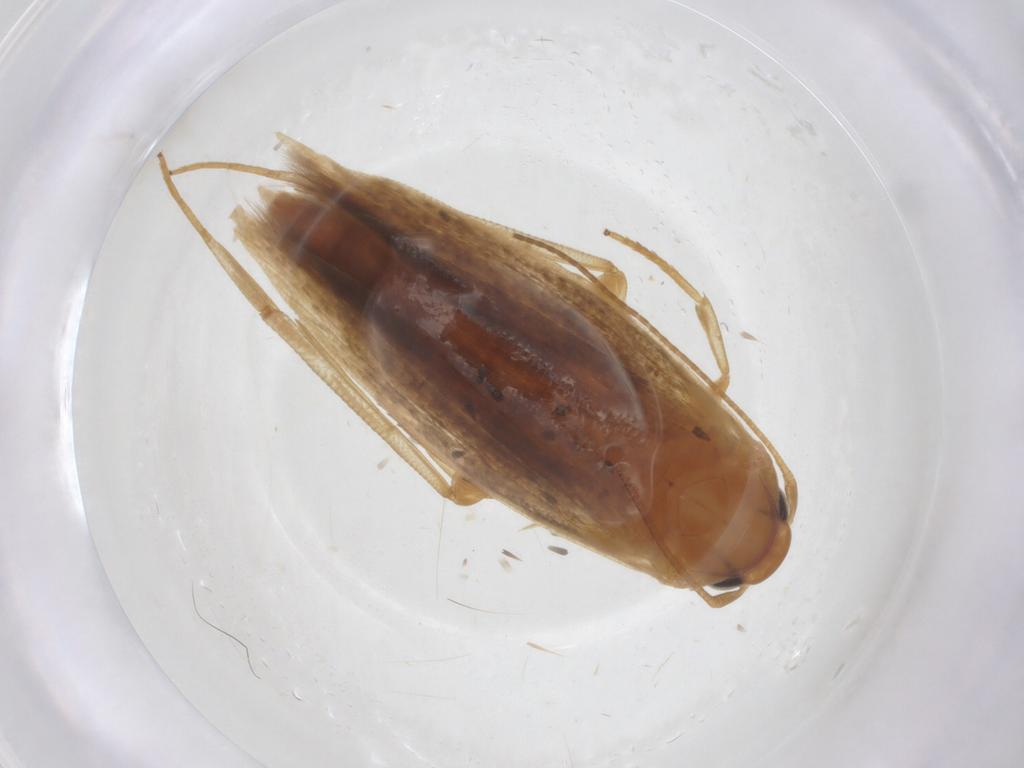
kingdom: Animalia
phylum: Arthropoda
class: Insecta
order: Lepidoptera
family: Stathmopodidae
